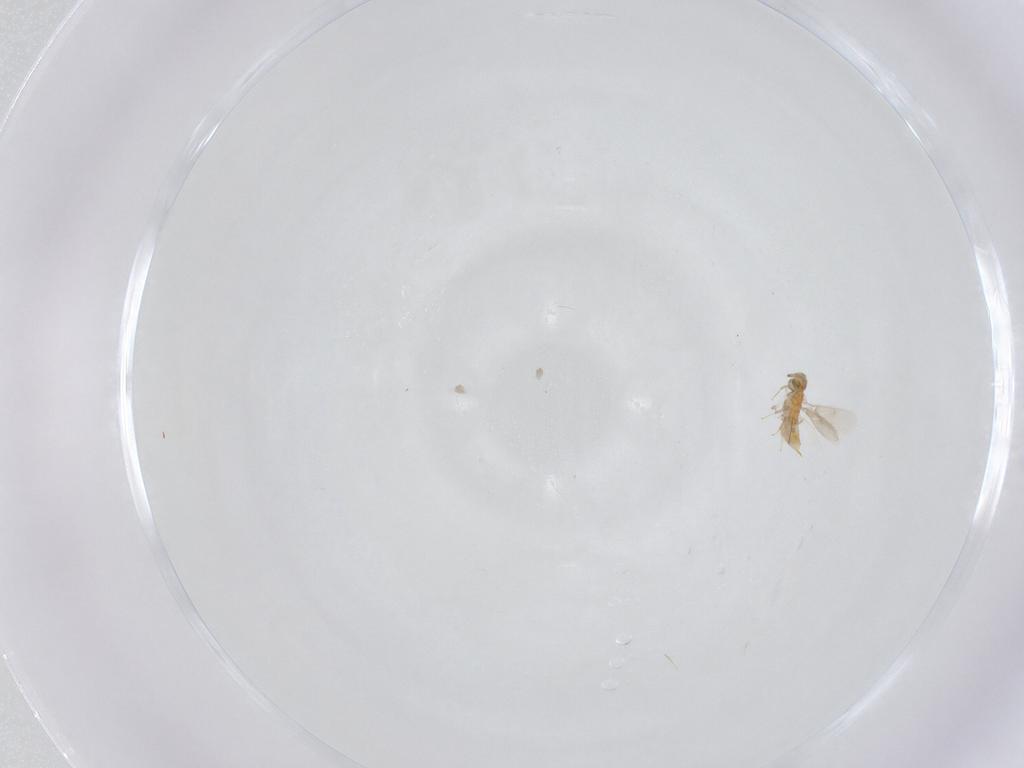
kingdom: Animalia
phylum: Arthropoda
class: Insecta
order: Hymenoptera
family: Aphelinidae
